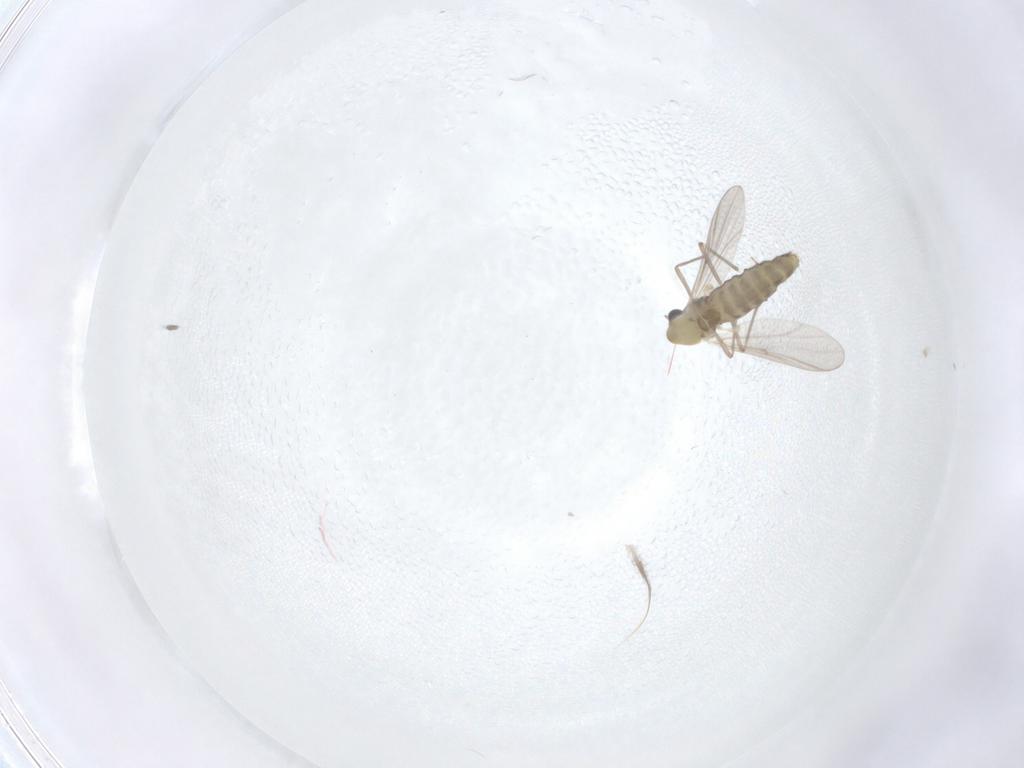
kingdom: Animalia
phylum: Arthropoda
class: Insecta
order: Diptera
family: Chironomidae
